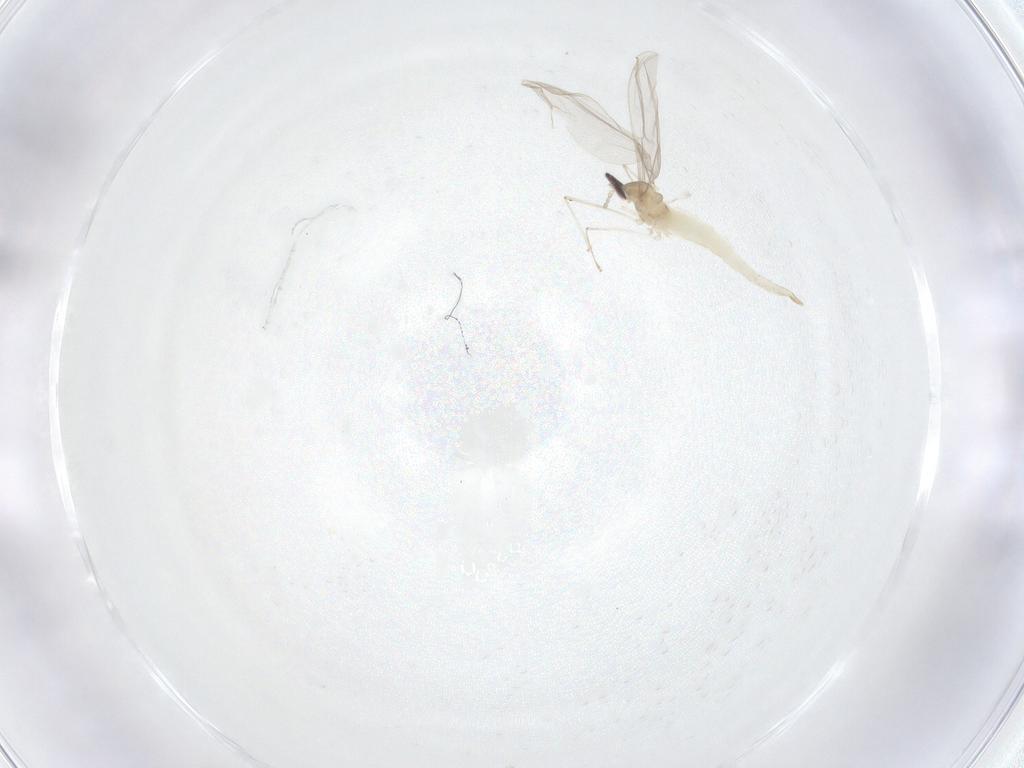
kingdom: Animalia
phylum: Arthropoda
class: Insecta
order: Diptera
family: Cecidomyiidae
